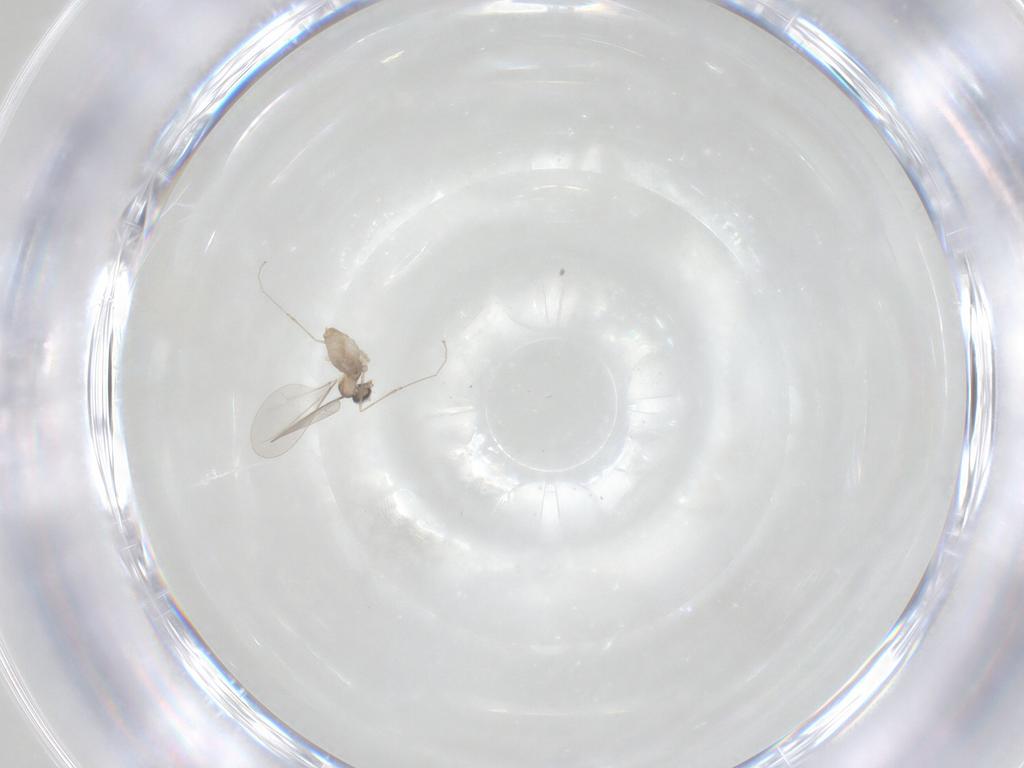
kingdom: Animalia
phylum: Arthropoda
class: Insecta
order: Diptera
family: Cecidomyiidae
